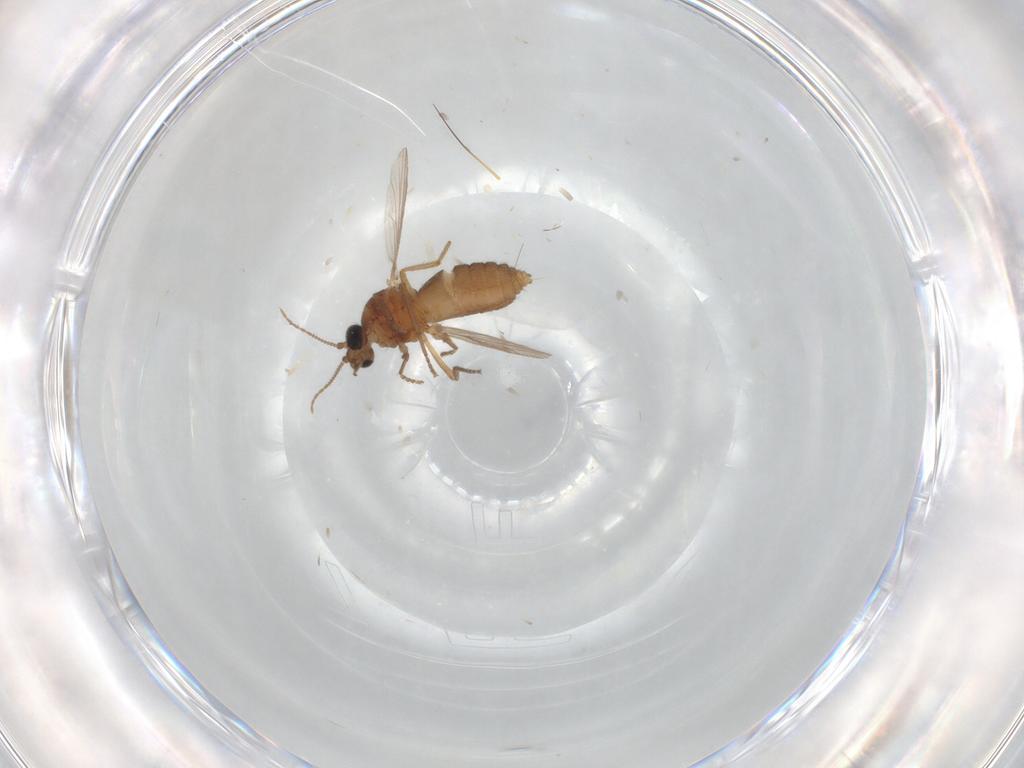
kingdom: Animalia
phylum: Arthropoda
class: Insecta
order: Diptera
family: Ceratopogonidae
